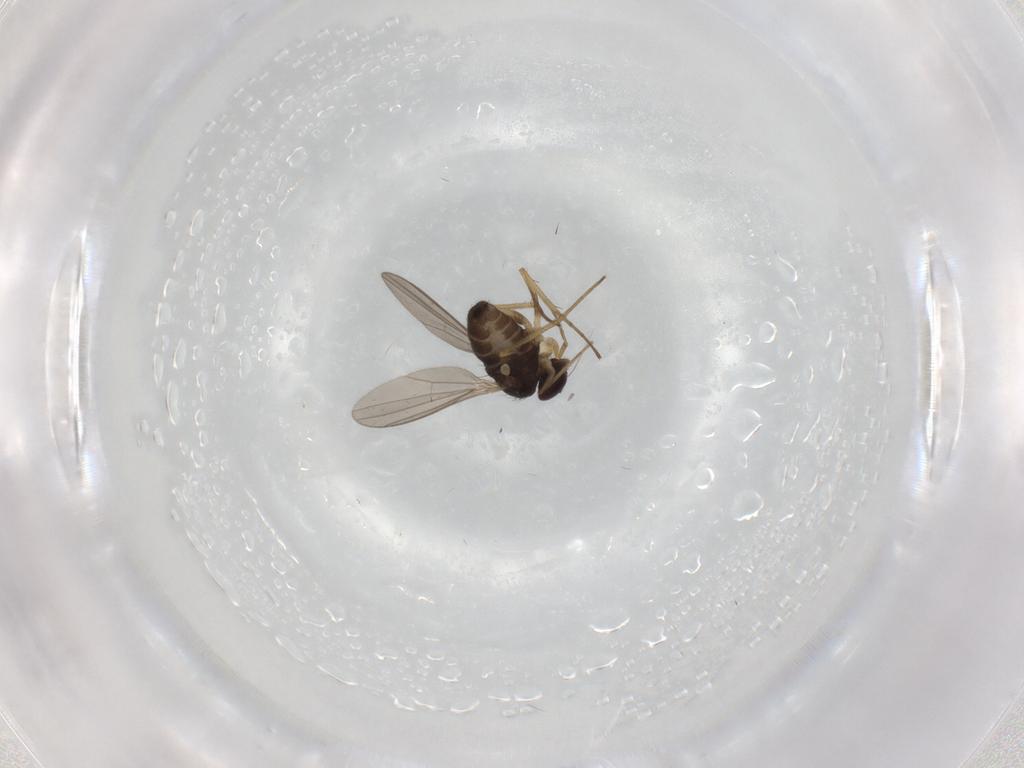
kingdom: Animalia
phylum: Arthropoda
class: Insecta
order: Diptera
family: Dolichopodidae
